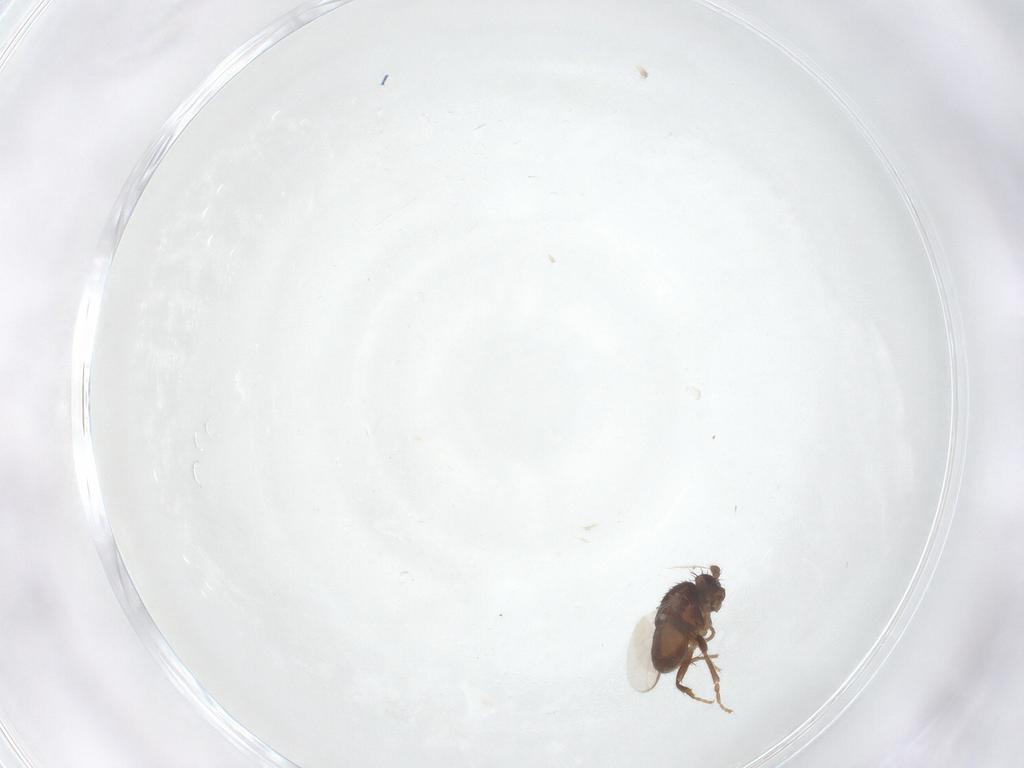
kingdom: Animalia
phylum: Arthropoda
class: Insecta
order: Diptera
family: Sphaeroceridae
